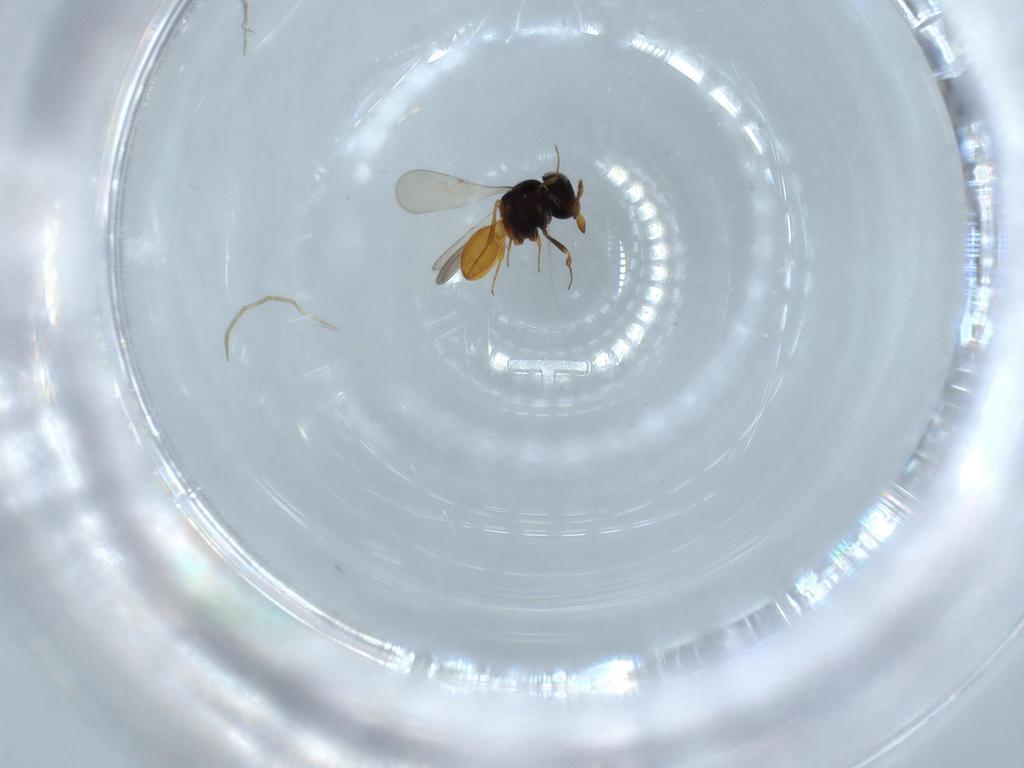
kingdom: Animalia
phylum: Arthropoda
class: Insecta
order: Hymenoptera
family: Scelionidae
